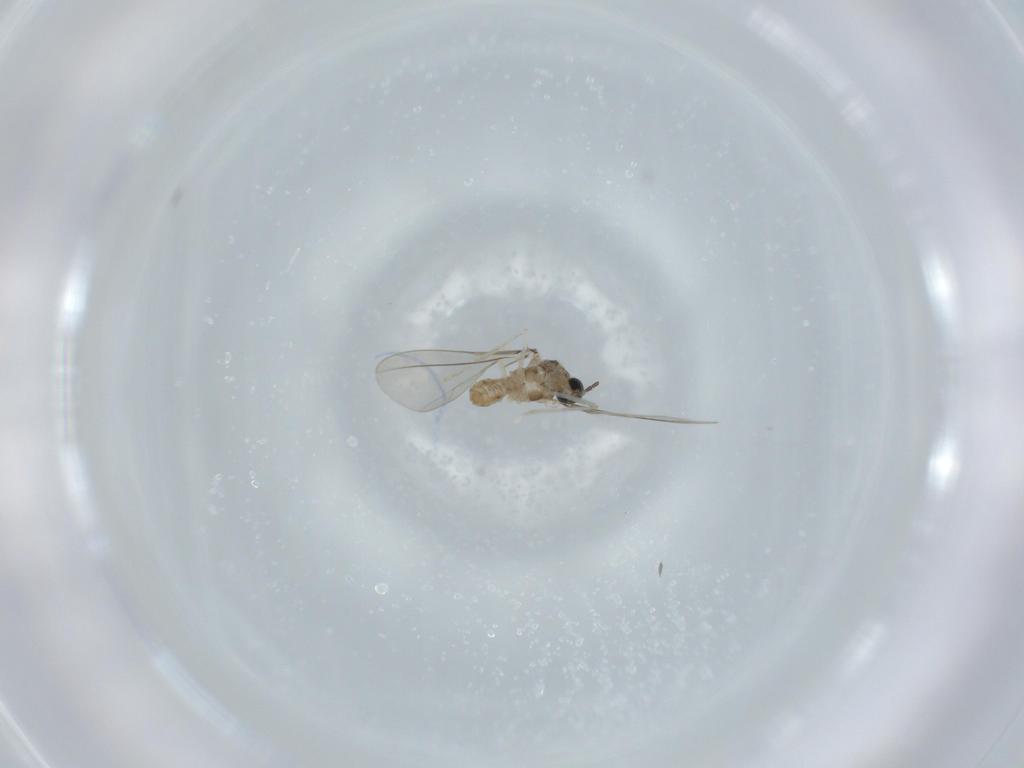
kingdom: Animalia
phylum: Arthropoda
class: Insecta
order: Diptera
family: Cecidomyiidae
